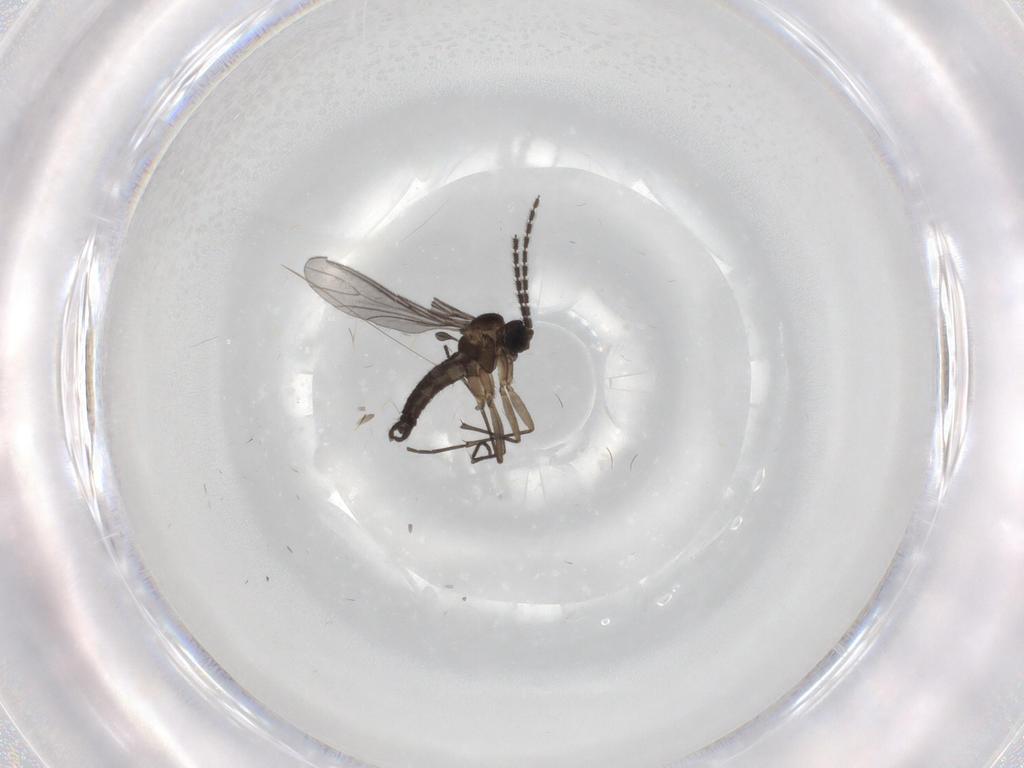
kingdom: Animalia
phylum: Arthropoda
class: Insecta
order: Diptera
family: Sciaridae
